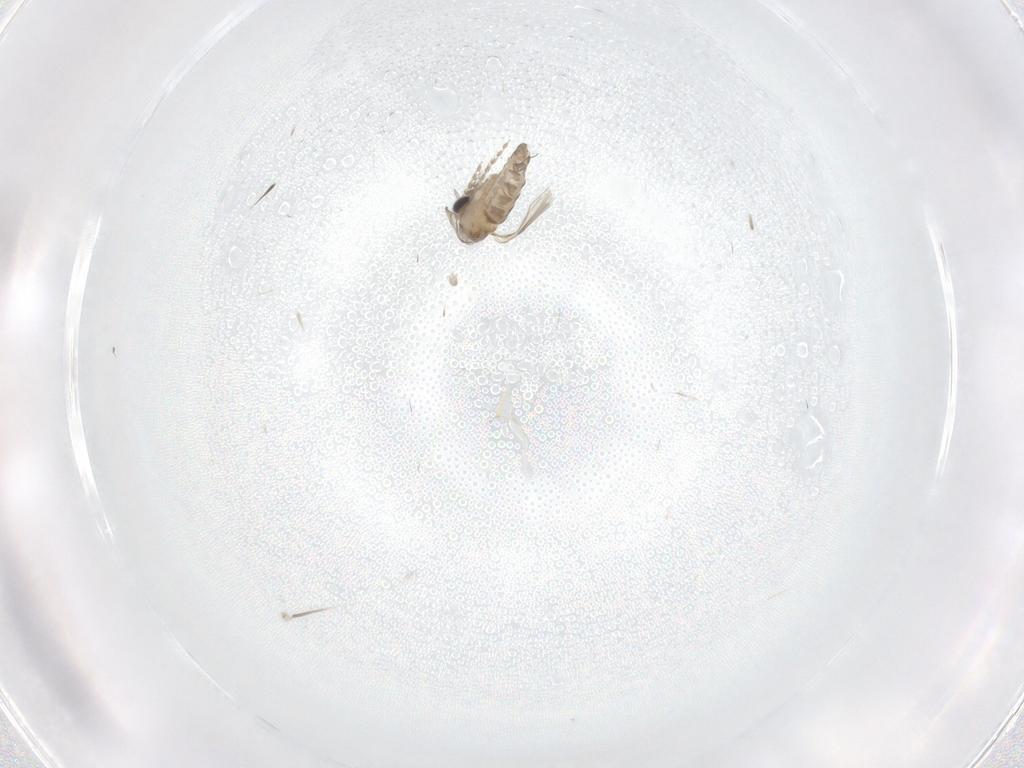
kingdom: Animalia
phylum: Arthropoda
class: Insecta
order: Diptera
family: Limoniidae
